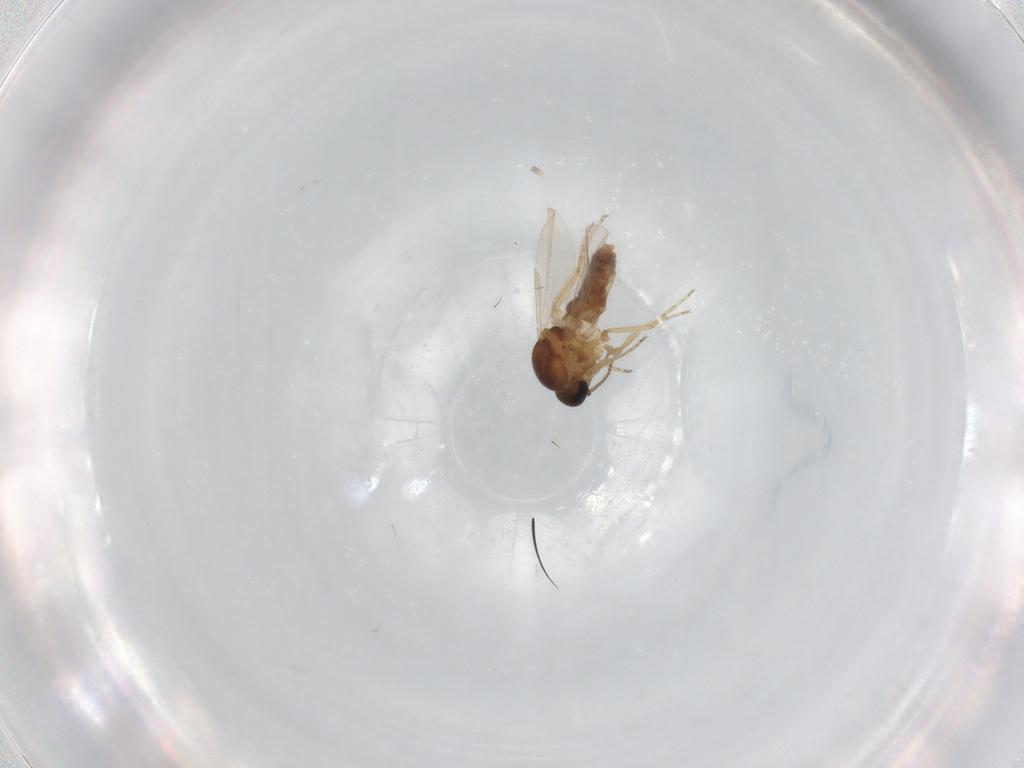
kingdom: Animalia
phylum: Arthropoda
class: Insecta
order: Diptera
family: Ceratopogonidae
